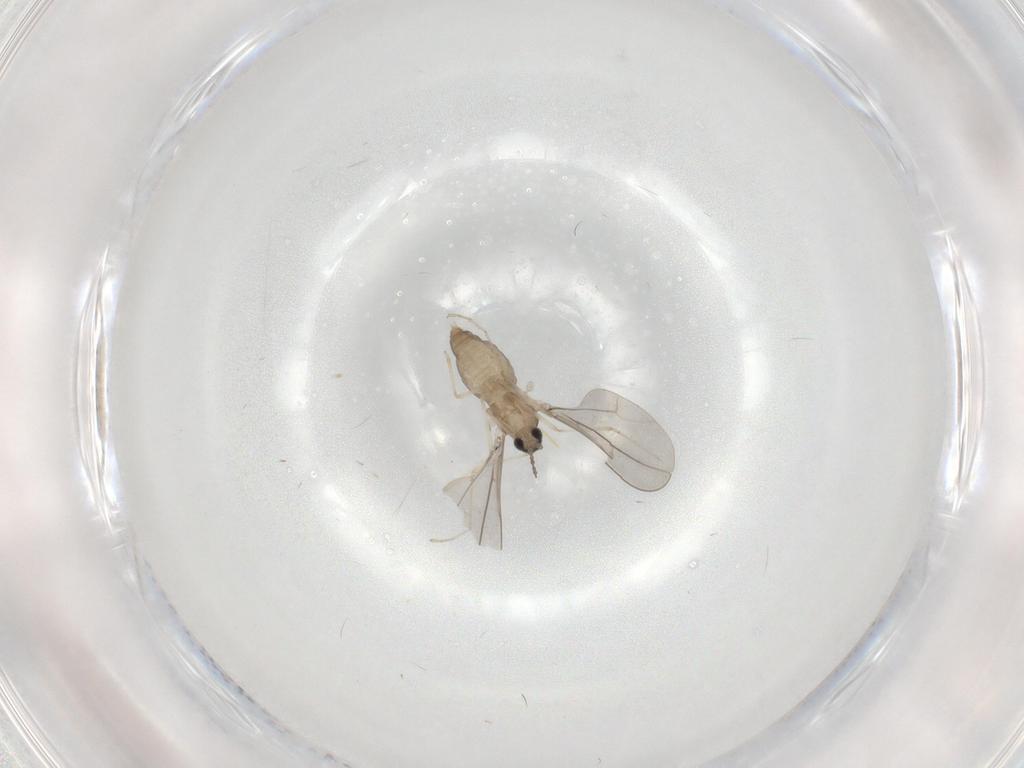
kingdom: Animalia
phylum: Arthropoda
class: Insecta
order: Diptera
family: Cecidomyiidae
